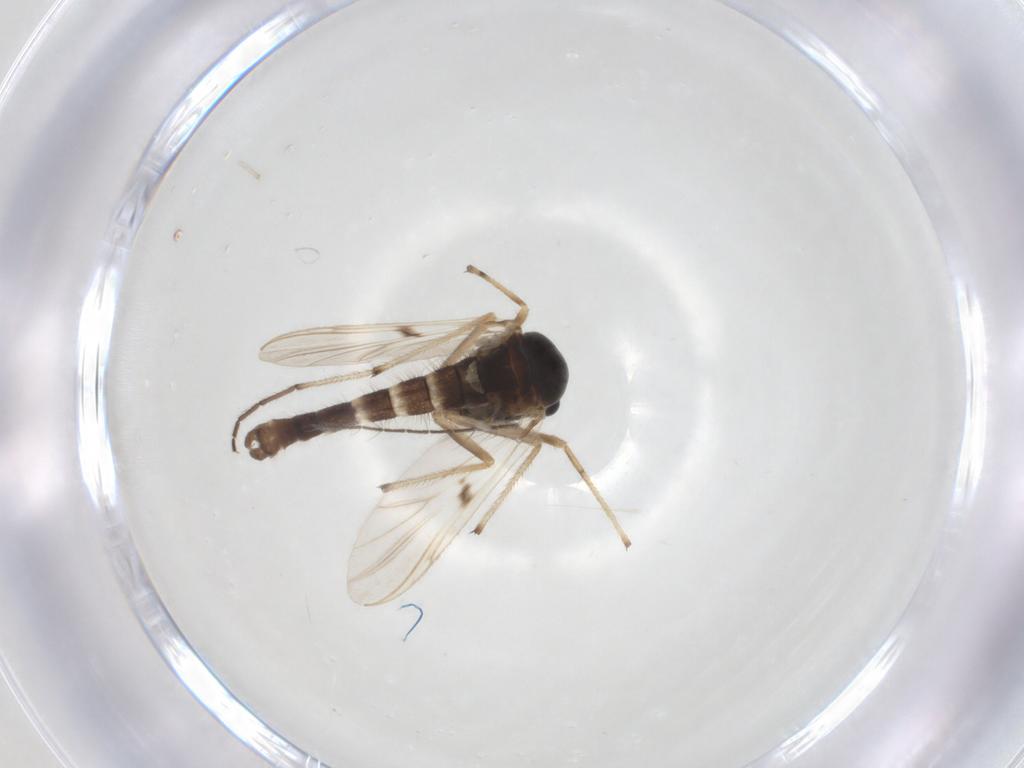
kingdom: Animalia
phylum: Arthropoda
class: Insecta
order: Diptera
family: Chironomidae
